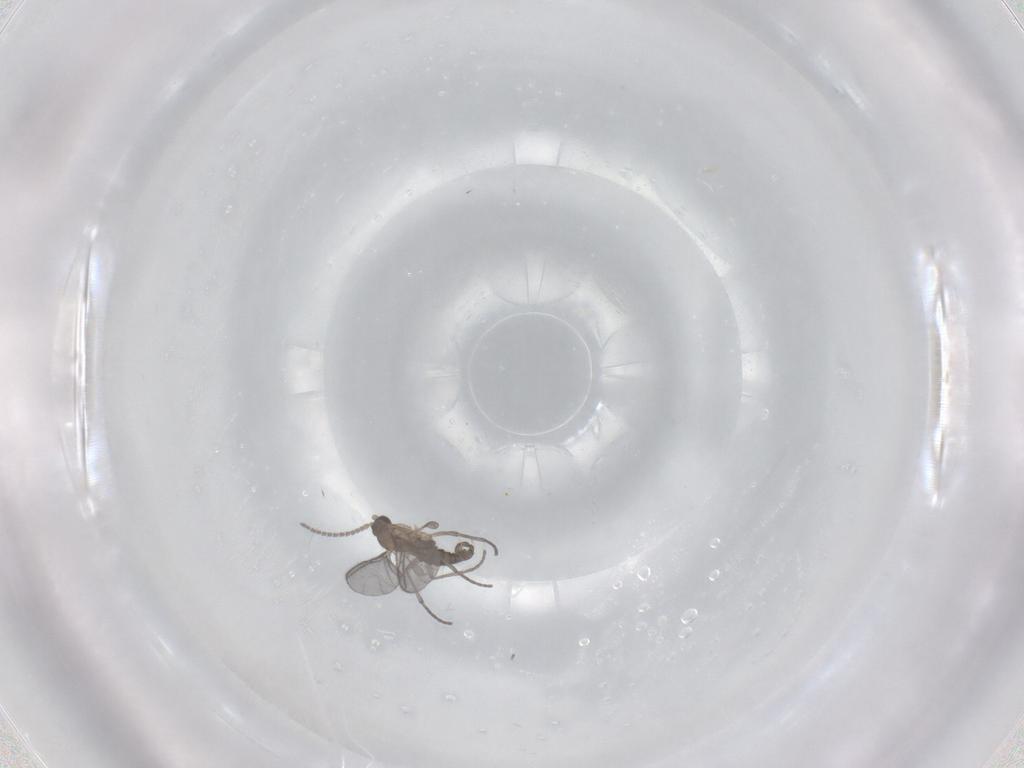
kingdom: Animalia
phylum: Arthropoda
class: Insecta
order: Diptera
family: Sciaridae
